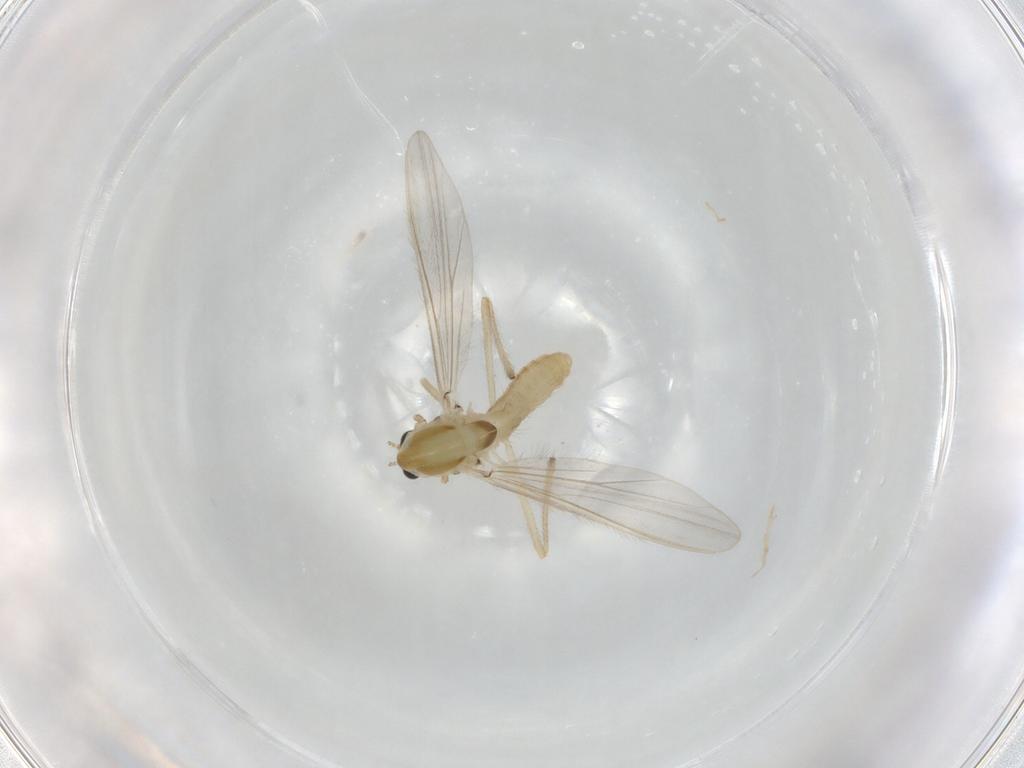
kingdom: Animalia
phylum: Arthropoda
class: Insecta
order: Diptera
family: Chironomidae
